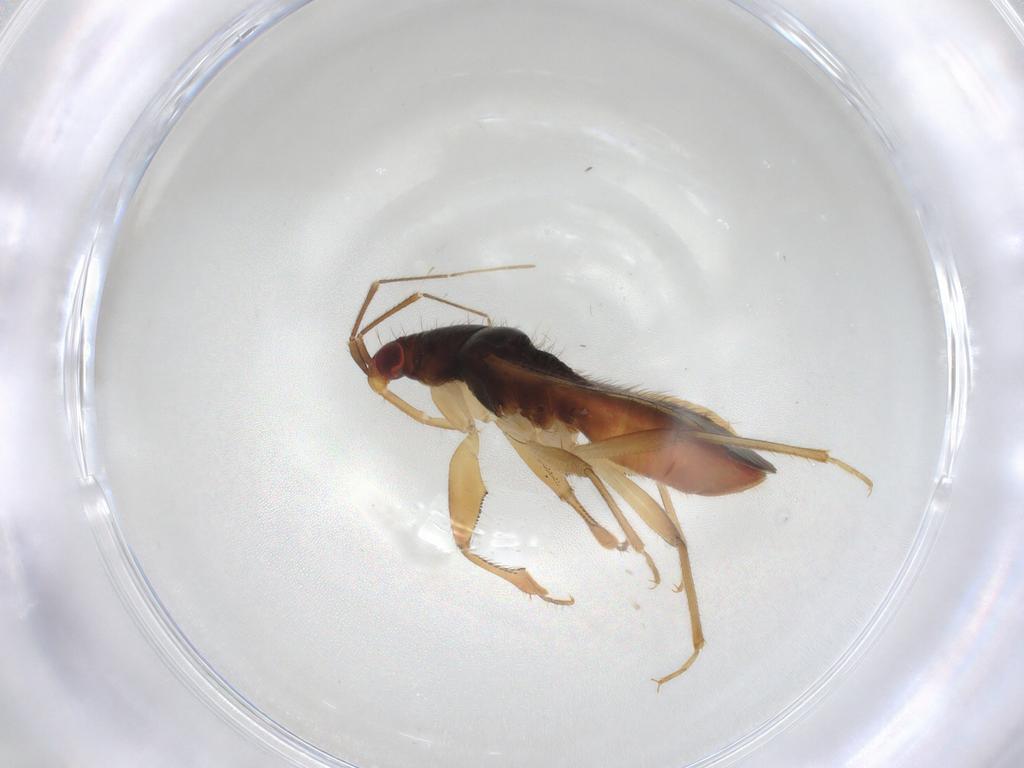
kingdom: Animalia
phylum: Arthropoda
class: Insecta
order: Hemiptera
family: Nabidae
